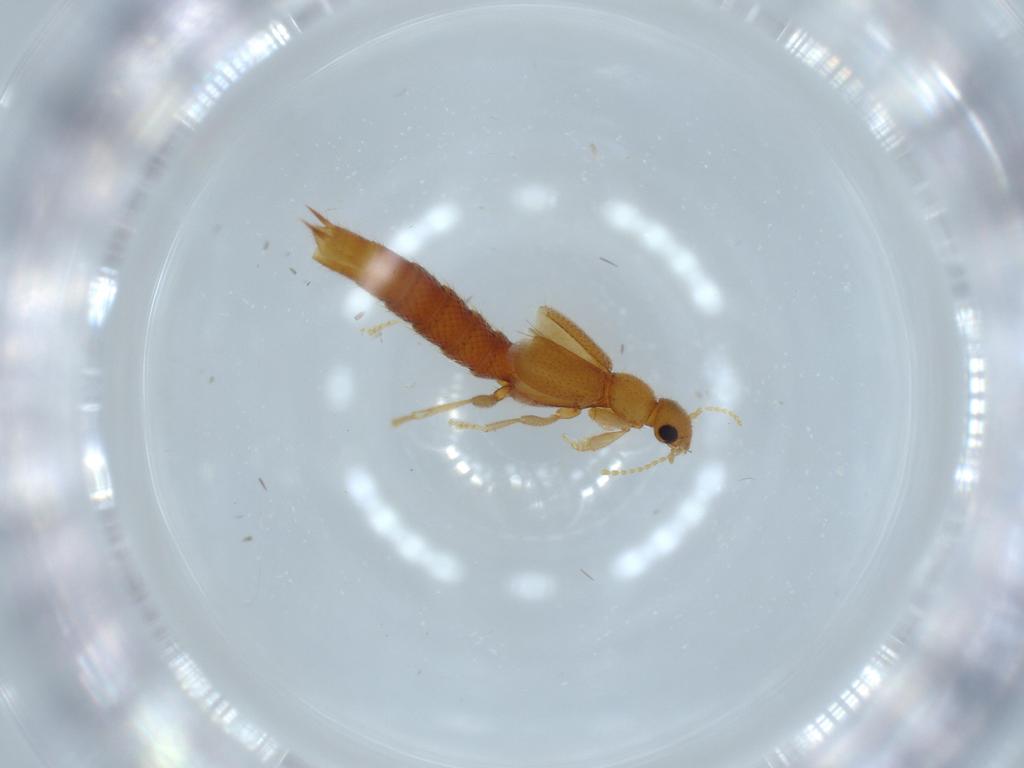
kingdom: Animalia
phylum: Arthropoda
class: Insecta
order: Coleoptera
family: Staphylinidae
